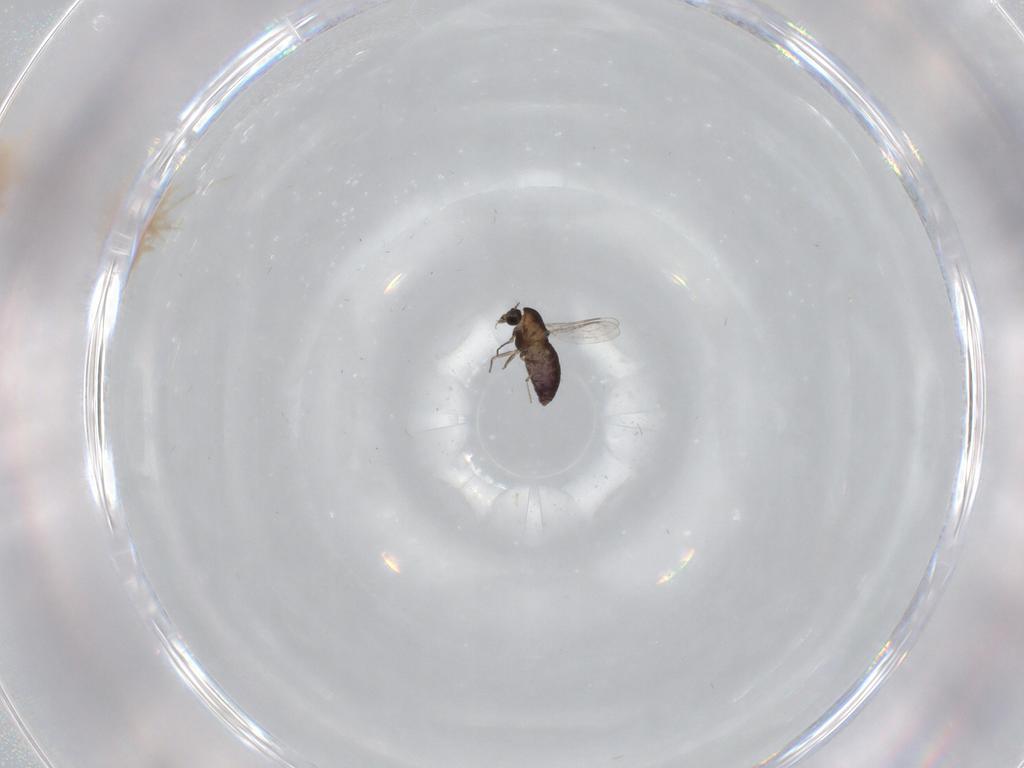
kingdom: Animalia
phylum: Arthropoda
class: Insecta
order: Diptera
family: Chironomidae
